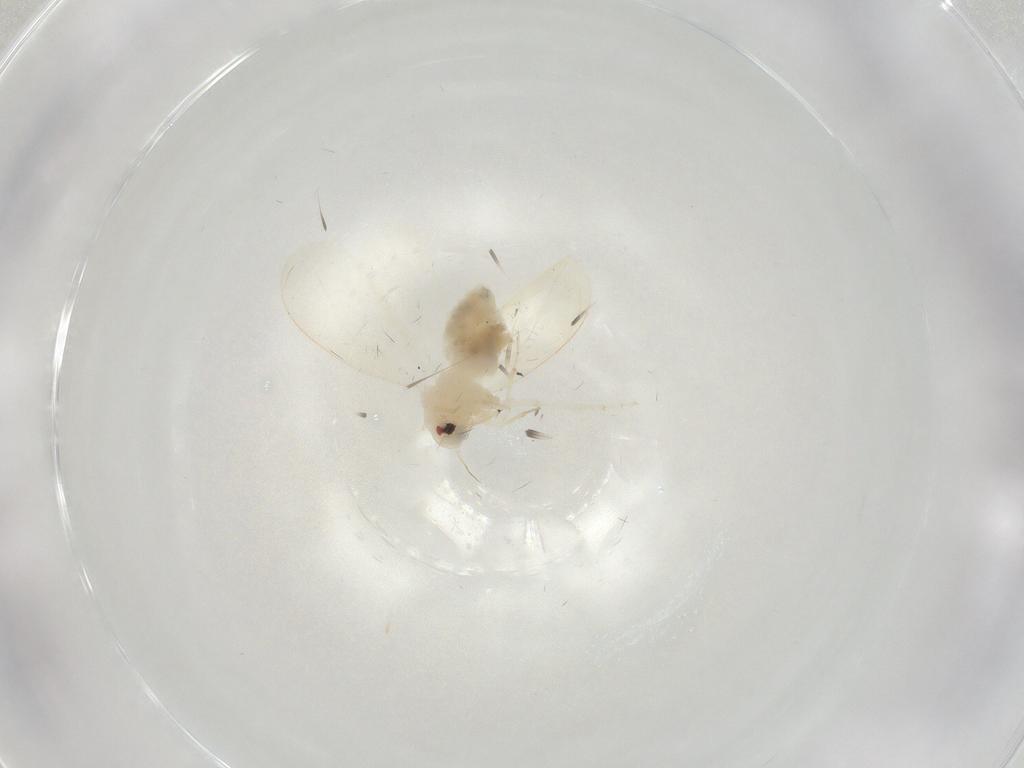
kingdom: Animalia
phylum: Arthropoda
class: Insecta
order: Hemiptera
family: Aleyrodidae
